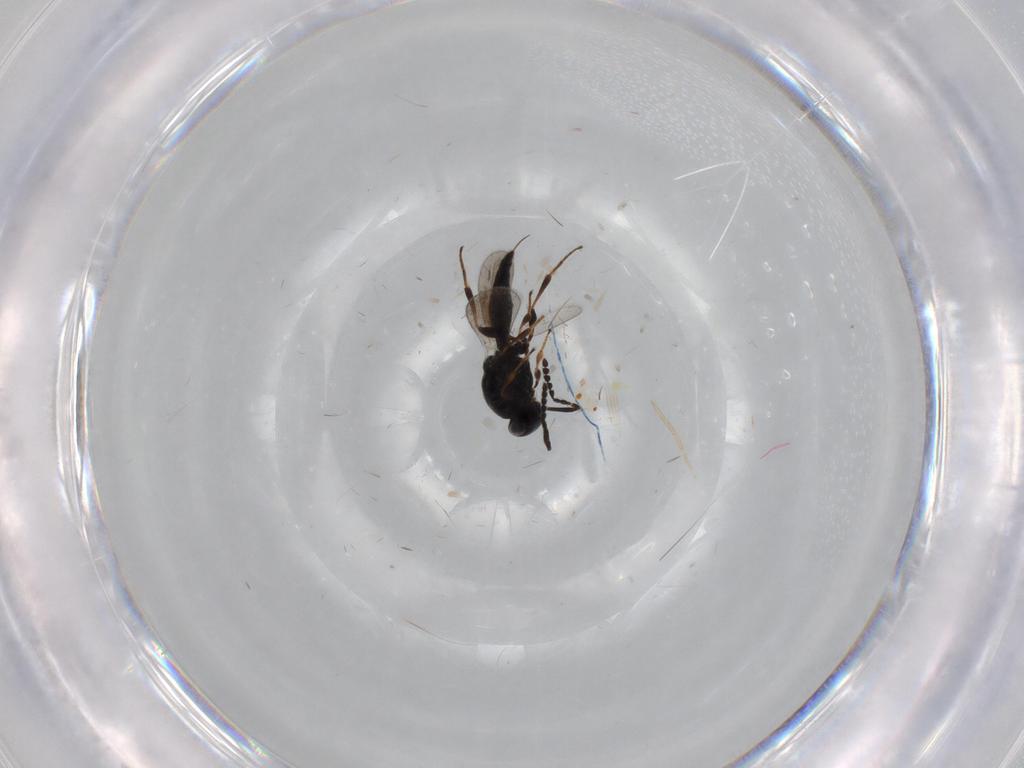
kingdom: Animalia
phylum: Arthropoda
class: Insecta
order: Hymenoptera
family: Platygastridae
